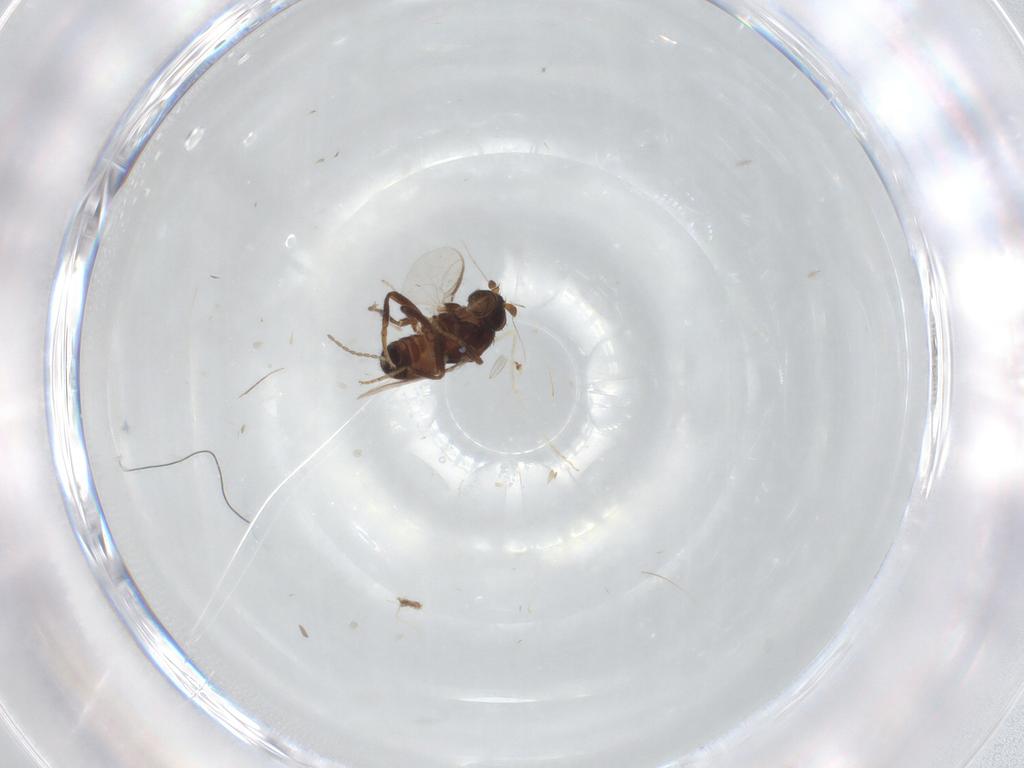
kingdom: Animalia
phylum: Arthropoda
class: Insecta
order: Diptera
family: Sphaeroceridae
